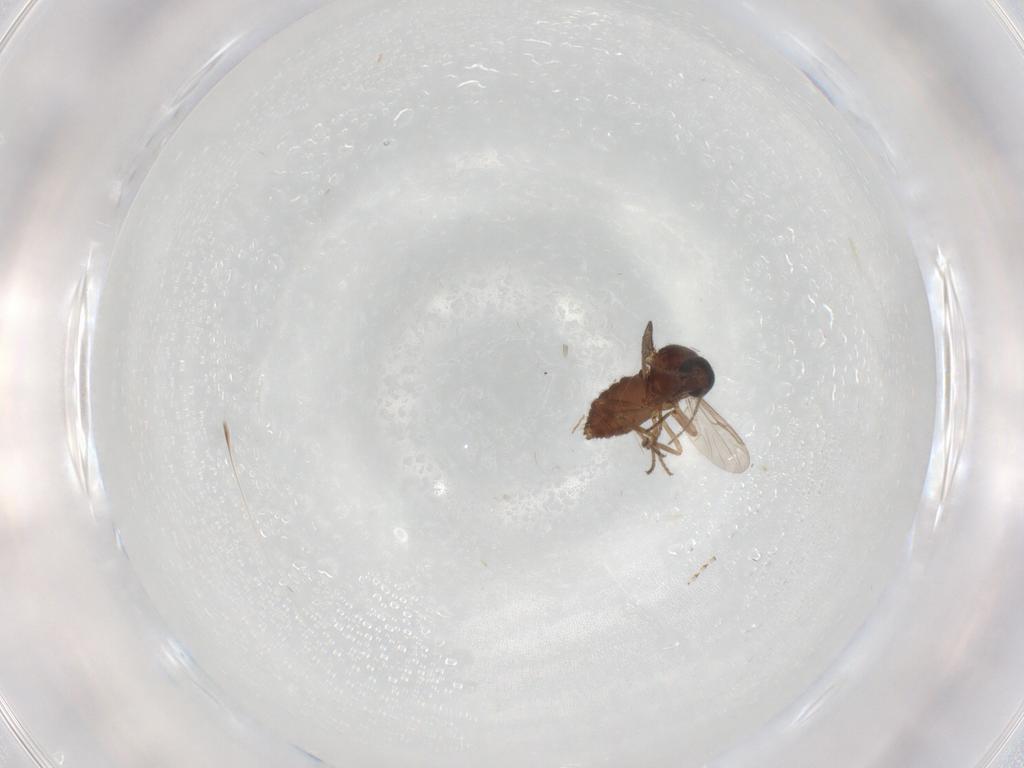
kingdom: Animalia
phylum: Arthropoda
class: Insecta
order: Diptera
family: Ceratopogonidae
